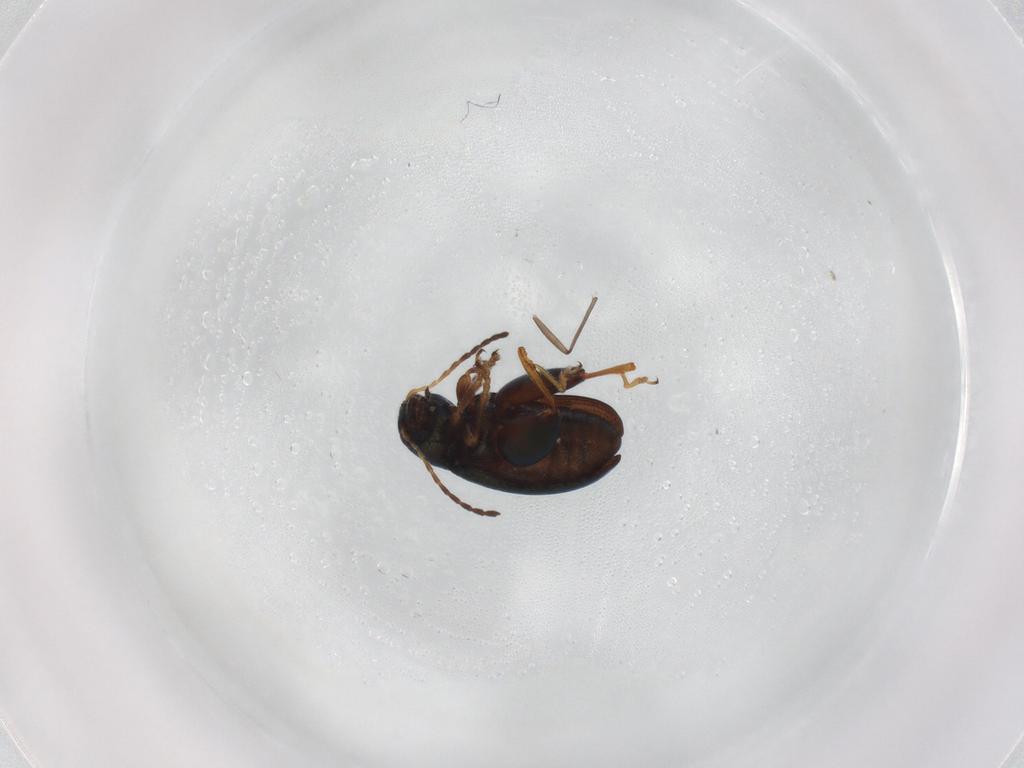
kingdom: Animalia
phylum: Arthropoda
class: Insecta
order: Coleoptera
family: Chrysomelidae
